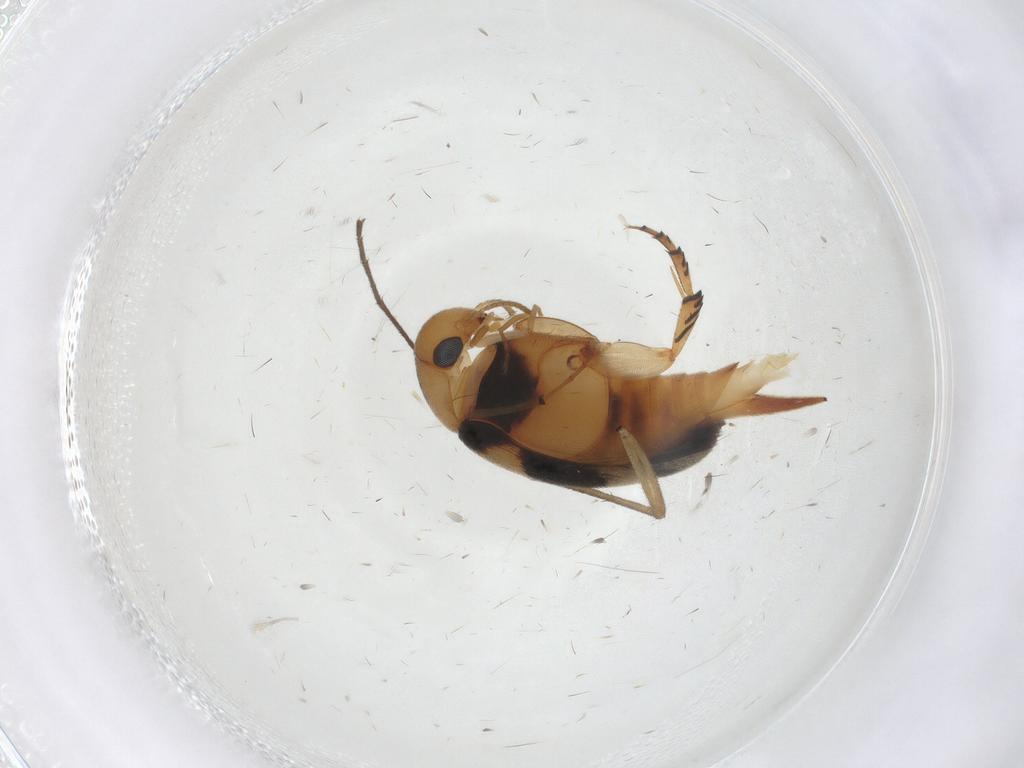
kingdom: Animalia
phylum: Arthropoda
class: Insecta
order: Coleoptera
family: Mordellidae
